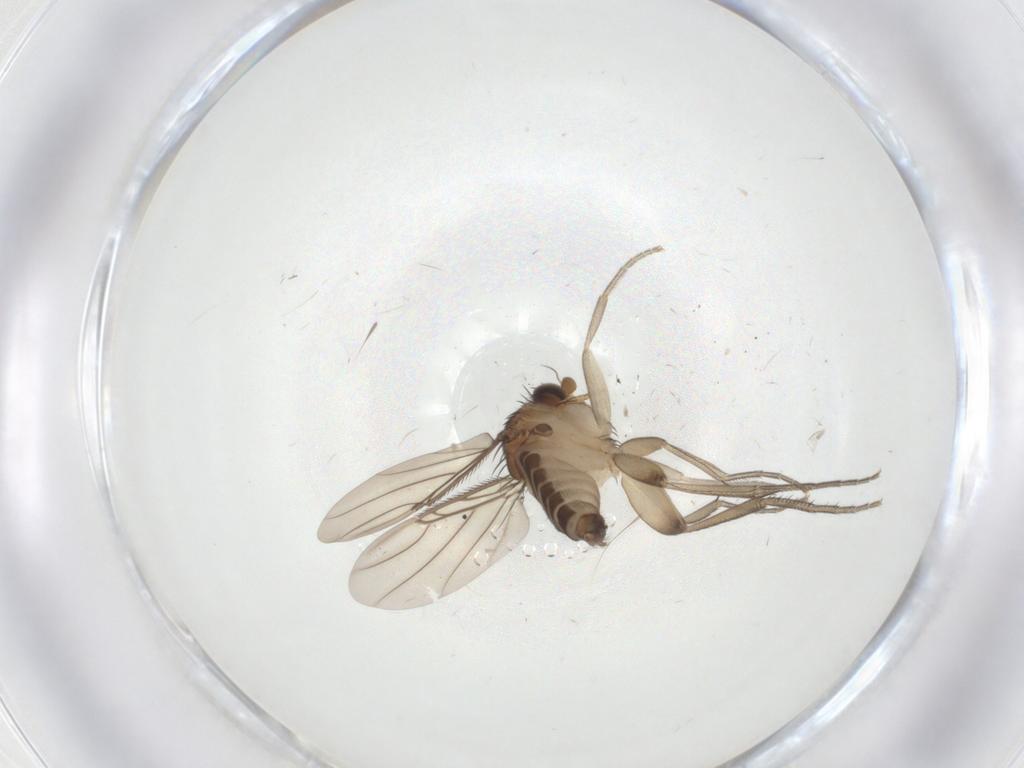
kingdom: Animalia
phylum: Arthropoda
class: Insecta
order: Diptera
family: Phoridae
